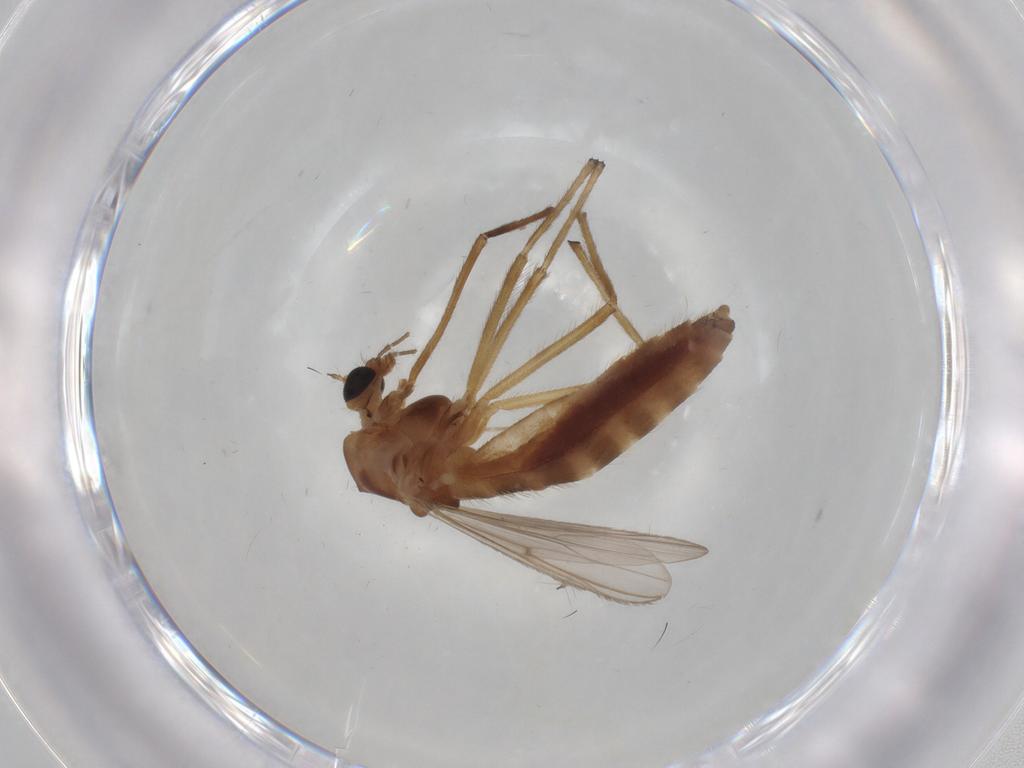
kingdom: Animalia
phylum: Arthropoda
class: Insecta
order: Diptera
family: Chironomidae
